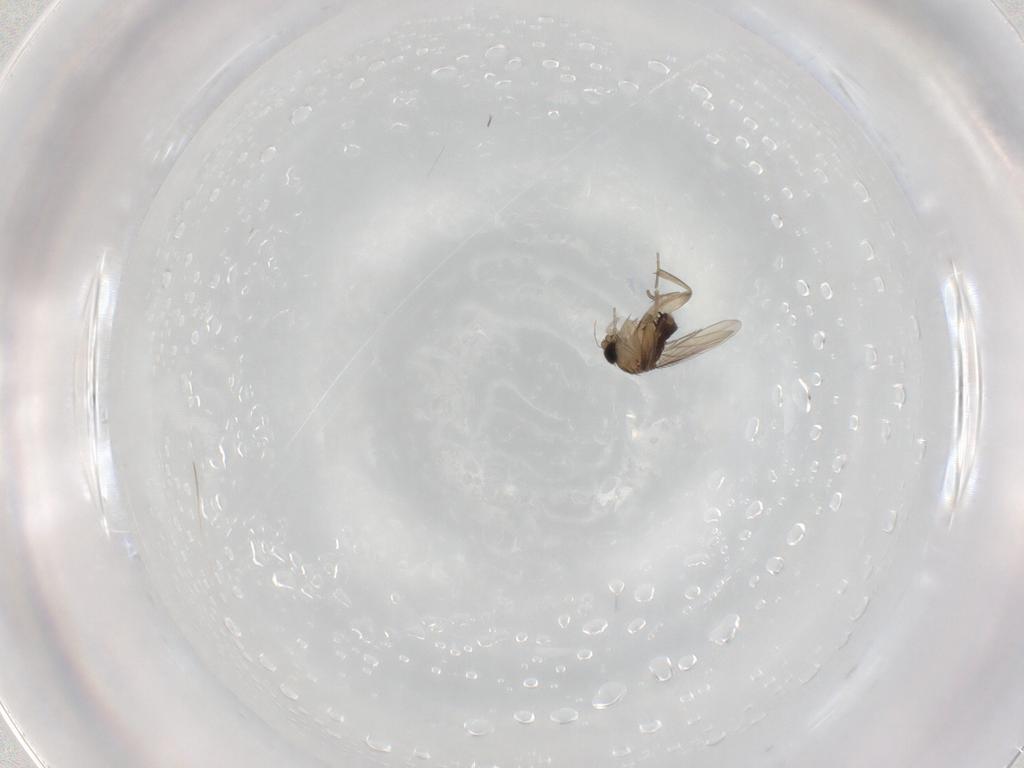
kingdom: Animalia
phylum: Arthropoda
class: Insecta
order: Diptera
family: Phoridae
